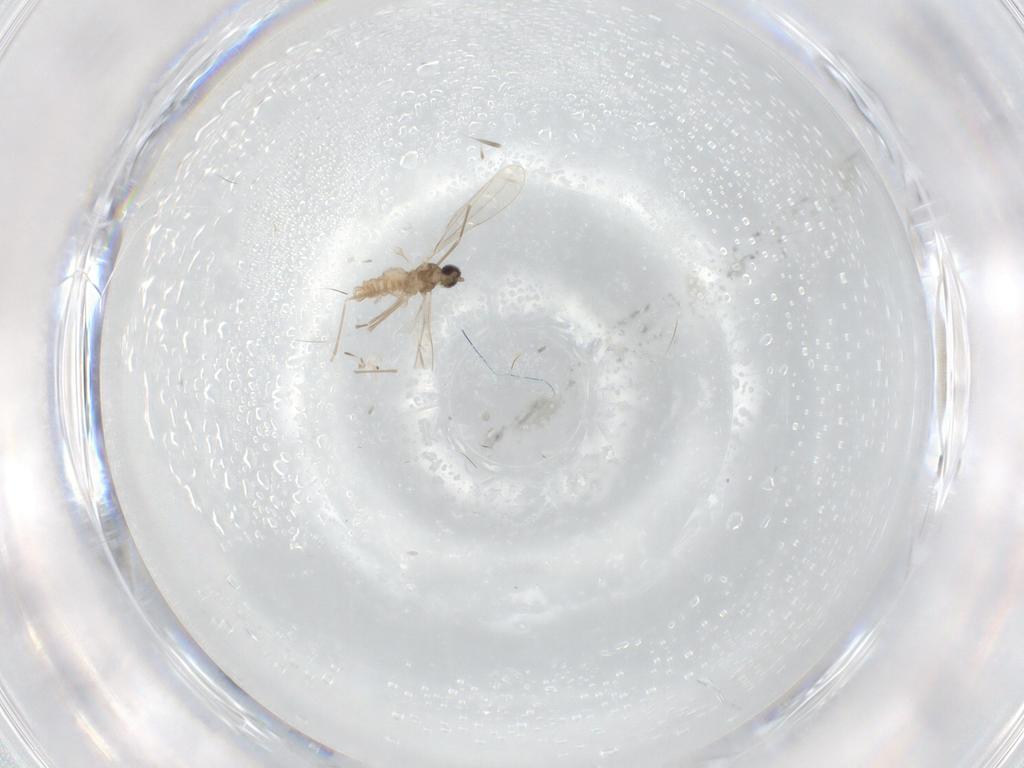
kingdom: Animalia
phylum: Arthropoda
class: Insecta
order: Diptera
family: Cecidomyiidae
